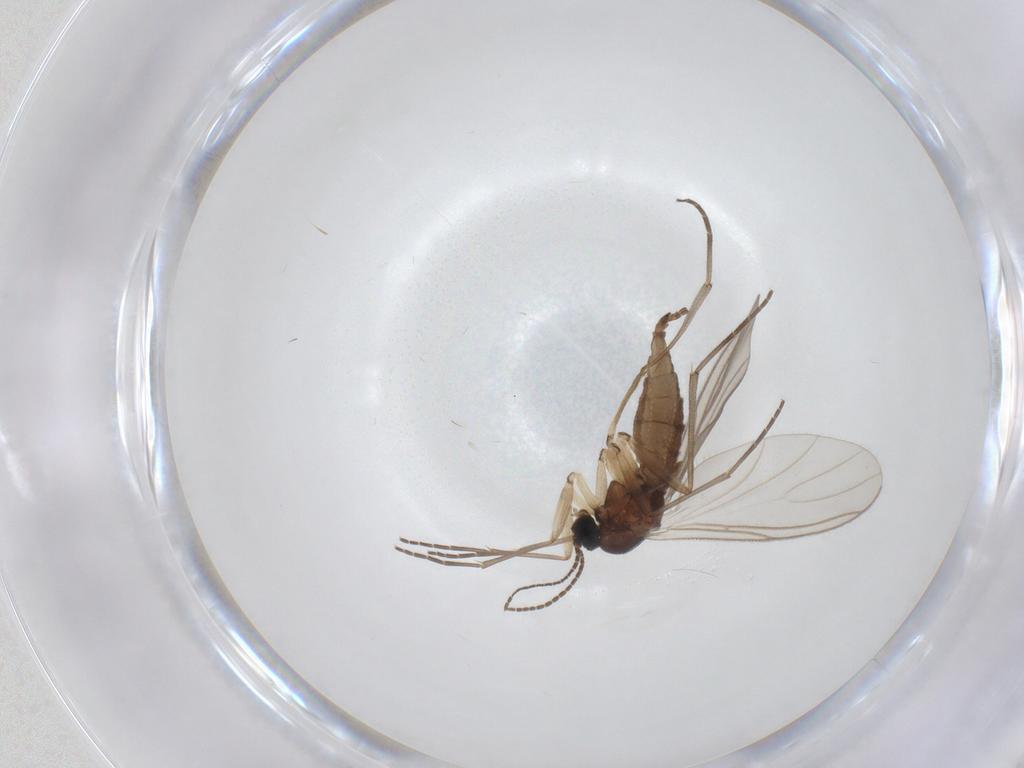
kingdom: Animalia
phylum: Arthropoda
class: Insecta
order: Diptera
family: Sciaridae
